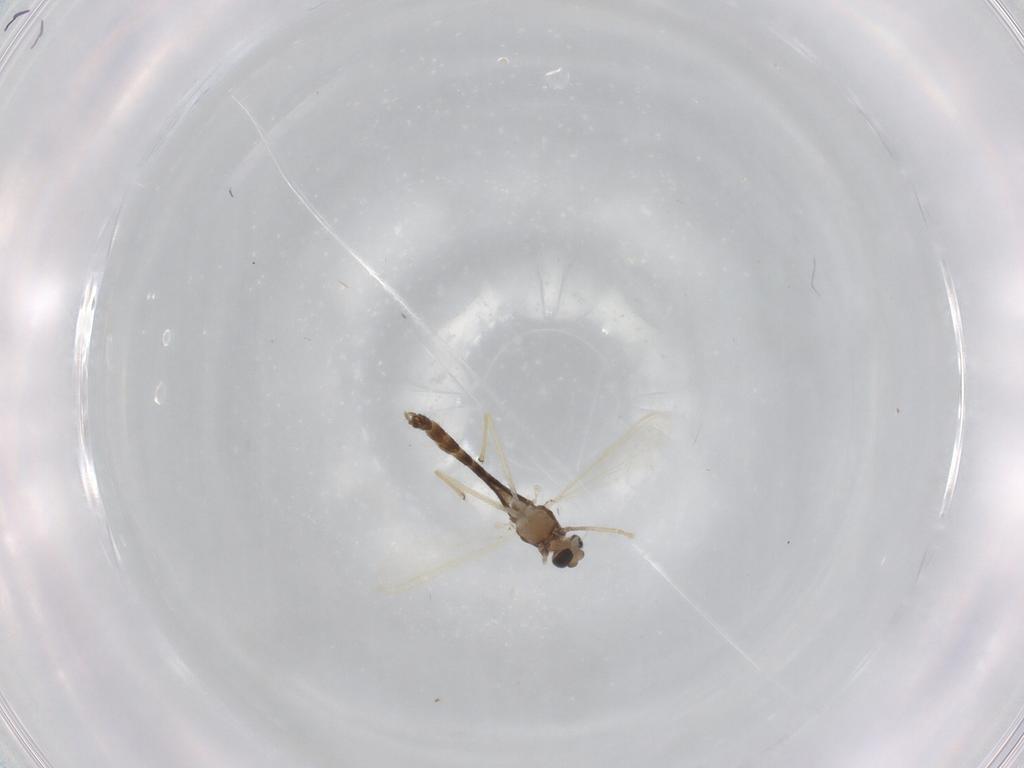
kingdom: Animalia
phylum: Arthropoda
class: Insecta
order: Diptera
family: Chironomidae
